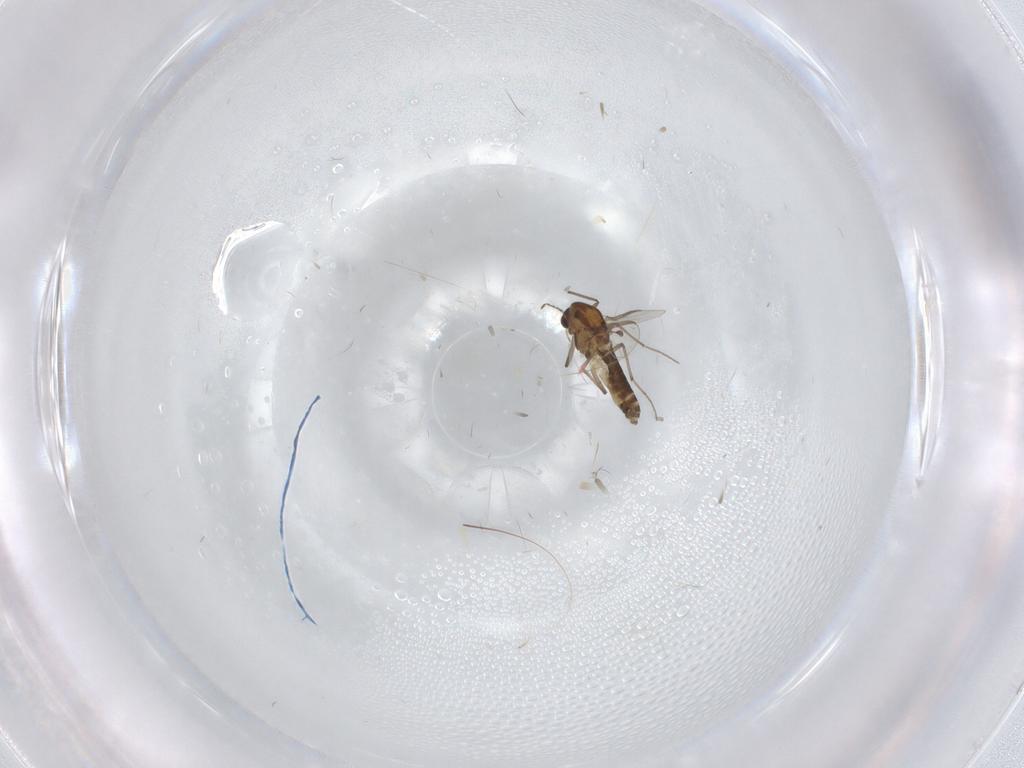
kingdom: Animalia
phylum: Arthropoda
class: Insecta
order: Diptera
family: Chironomidae
